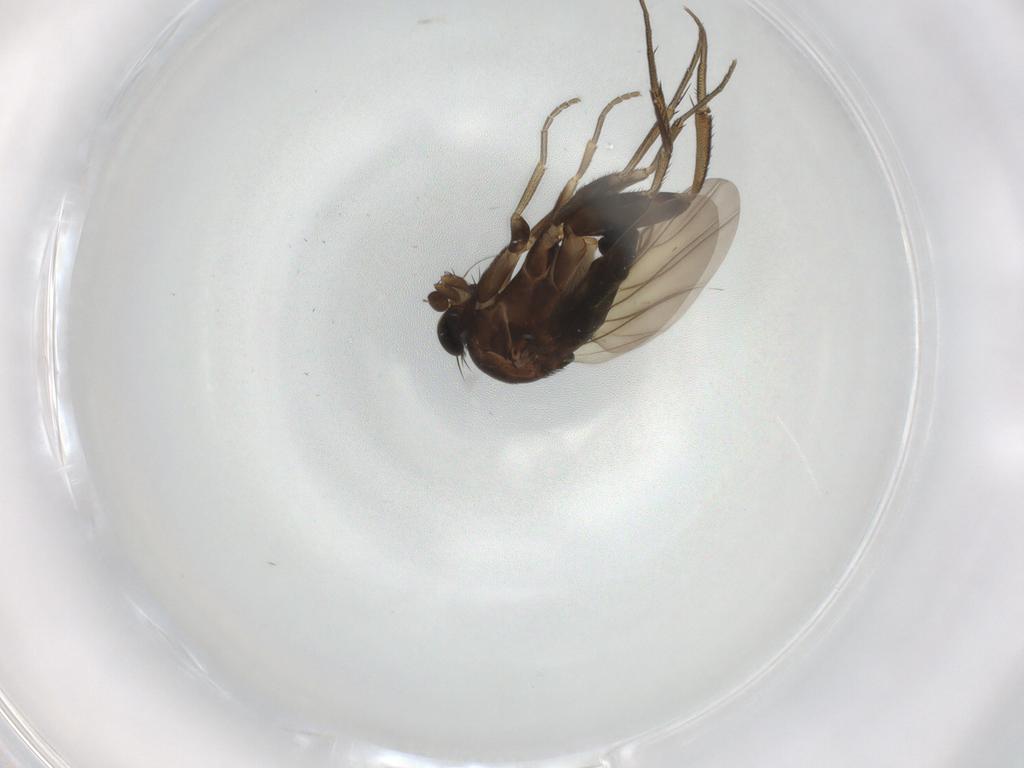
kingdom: Animalia
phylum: Arthropoda
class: Insecta
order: Diptera
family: Phoridae
